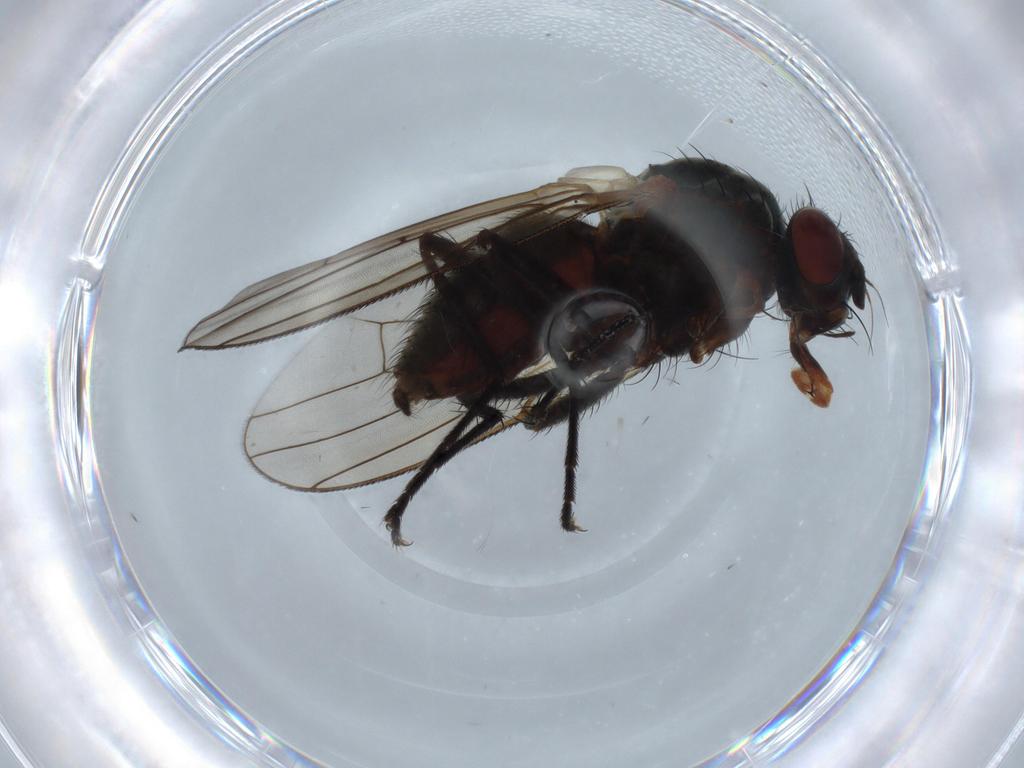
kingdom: Animalia
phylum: Arthropoda
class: Insecta
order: Diptera
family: Anthomyiidae
